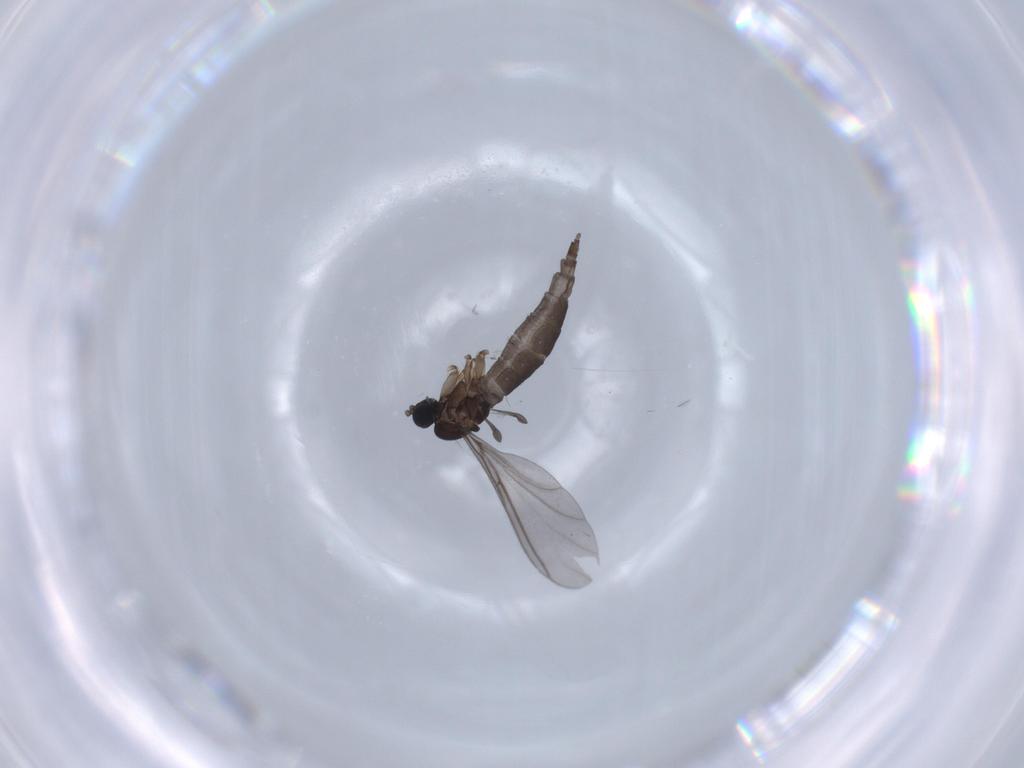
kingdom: Animalia
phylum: Arthropoda
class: Insecta
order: Diptera
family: Sciaridae
